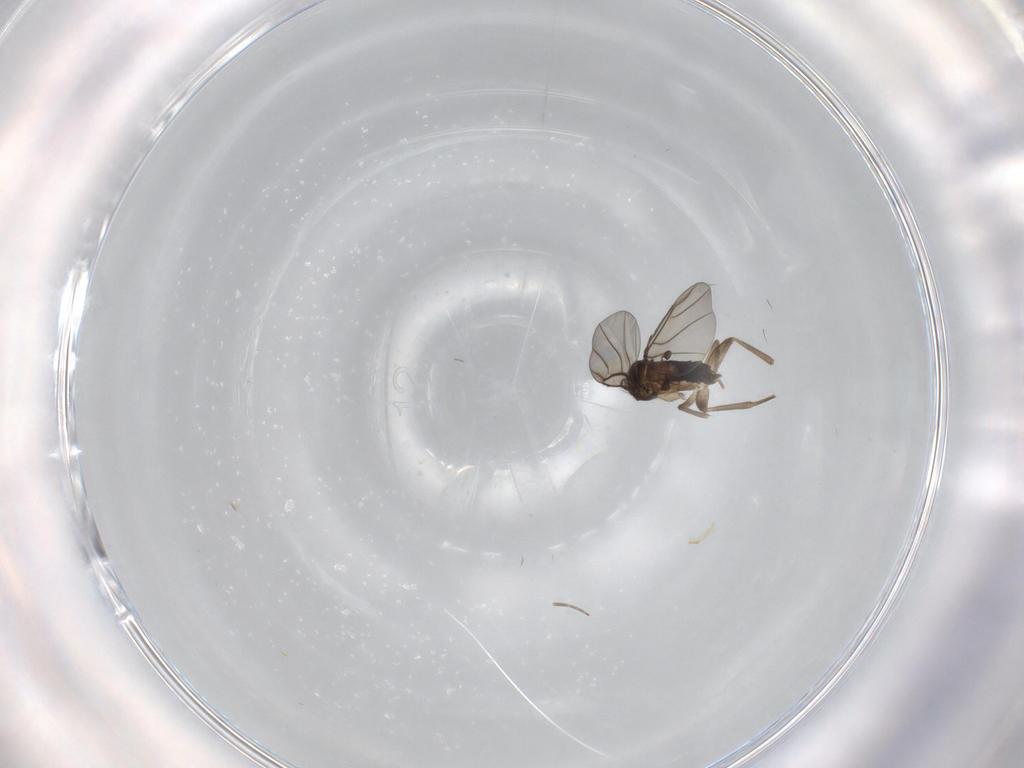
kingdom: Animalia
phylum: Arthropoda
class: Insecta
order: Diptera
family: Phoridae
